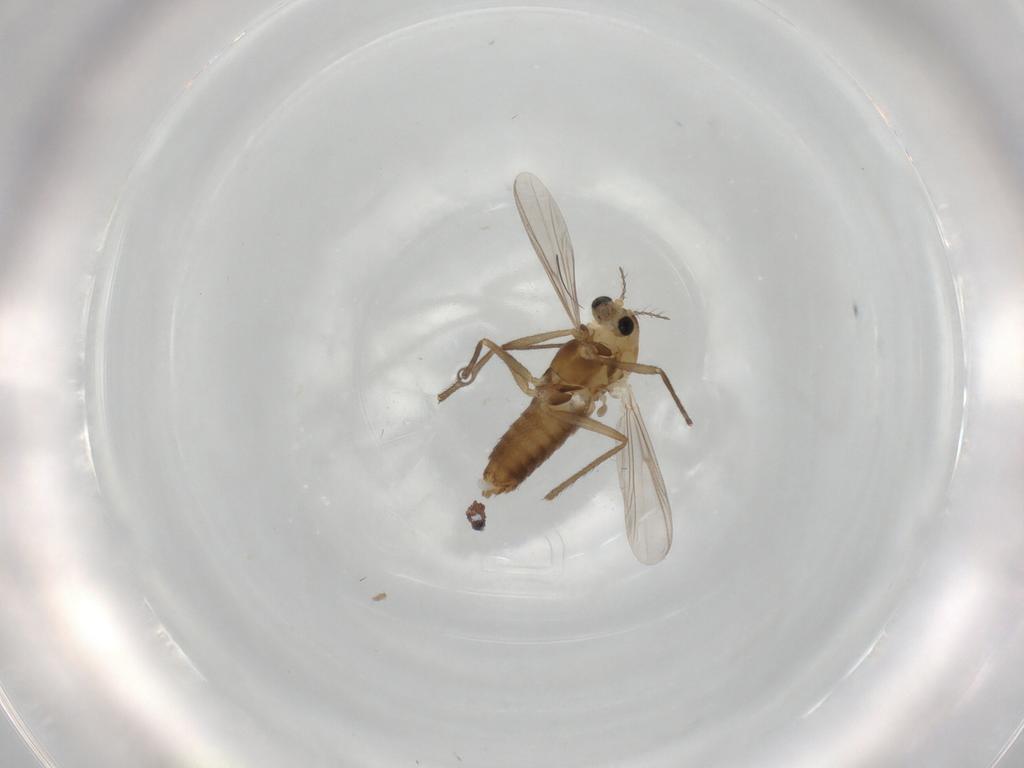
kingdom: Animalia
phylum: Arthropoda
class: Insecta
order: Diptera
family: Chironomidae
